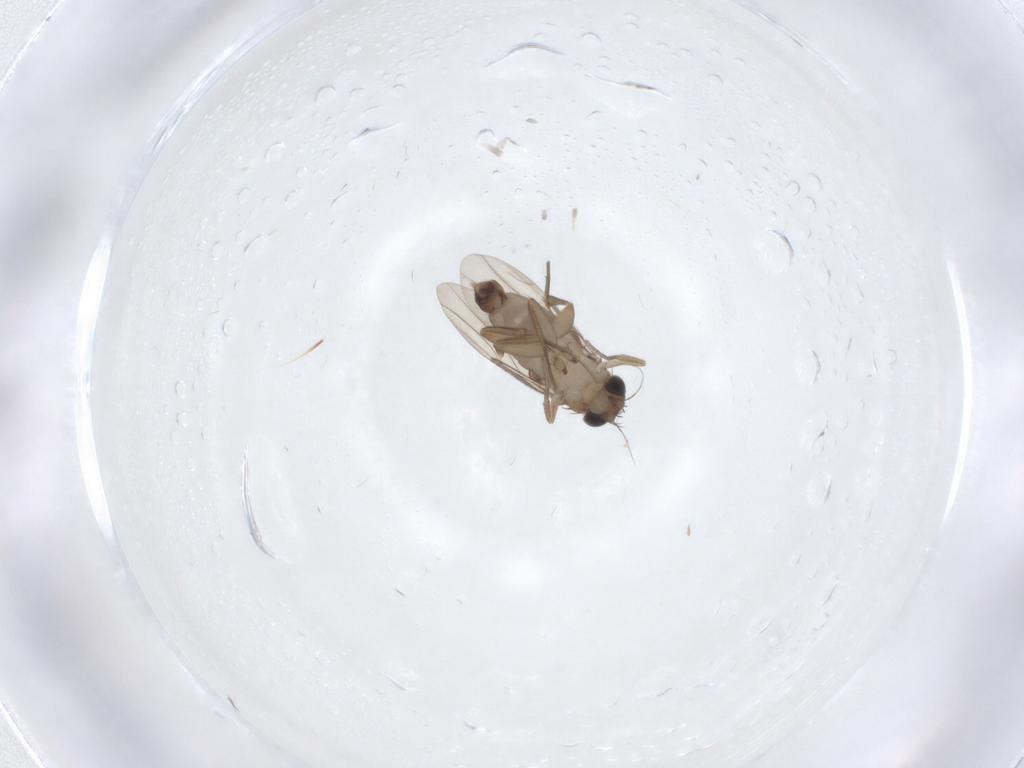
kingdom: Animalia
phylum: Arthropoda
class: Insecta
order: Diptera
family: Phoridae
